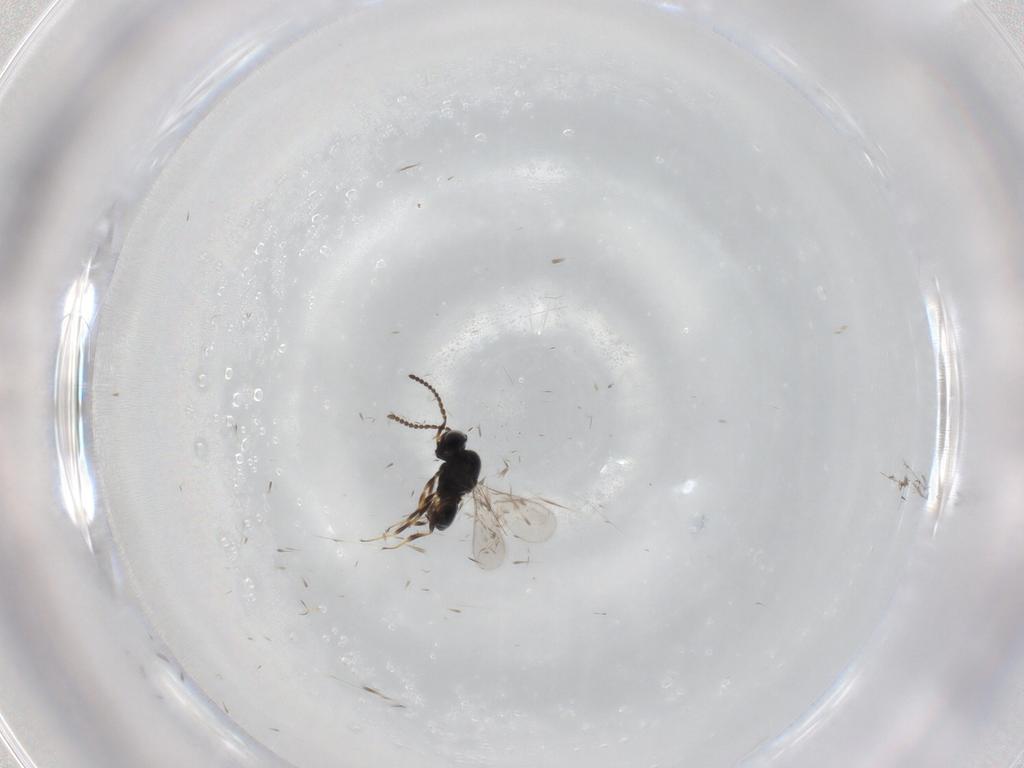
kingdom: Animalia
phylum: Arthropoda
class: Insecta
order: Hymenoptera
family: Scelionidae
